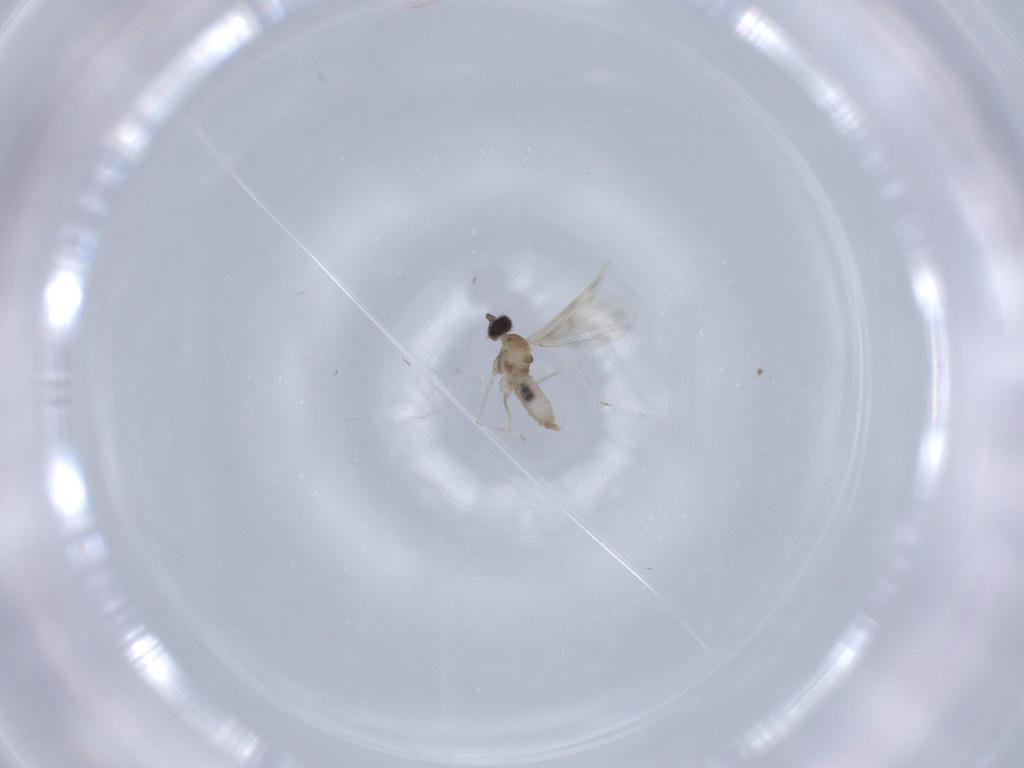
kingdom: Animalia
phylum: Arthropoda
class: Insecta
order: Diptera
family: Cecidomyiidae
